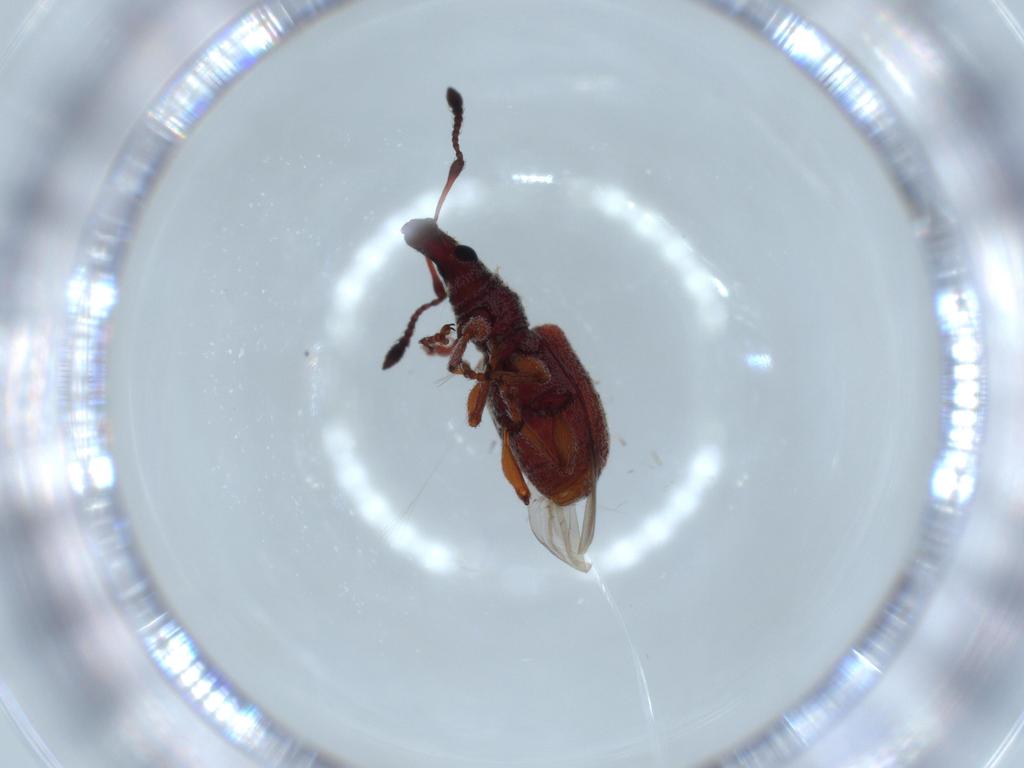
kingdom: Animalia
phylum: Arthropoda
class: Insecta
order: Coleoptera
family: Curculionidae
